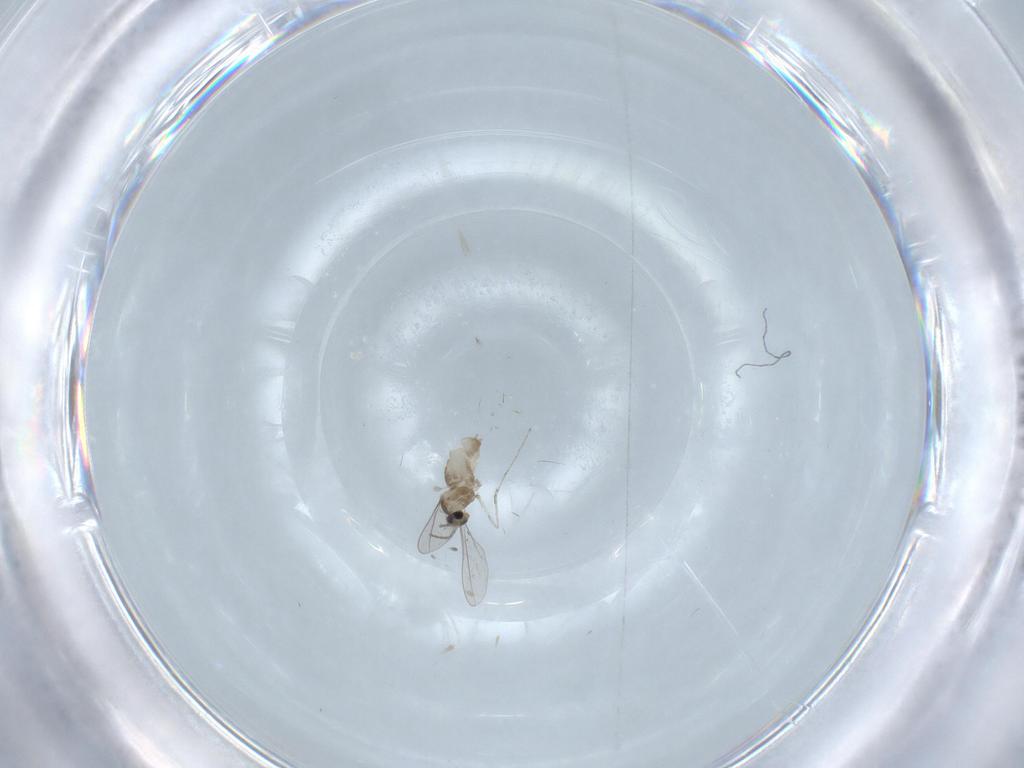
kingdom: Animalia
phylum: Arthropoda
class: Insecta
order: Diptera
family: Cecidomyiidae
